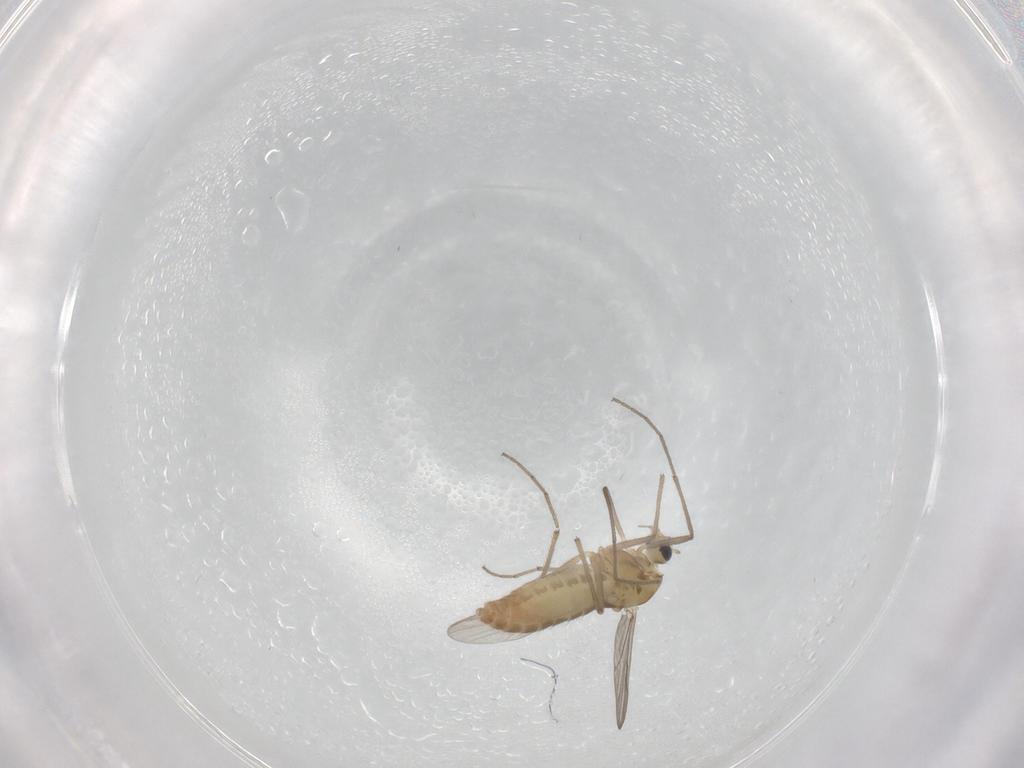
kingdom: Animalia
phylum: Arthropoda
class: Insecta
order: Diptera
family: Chironomidae
